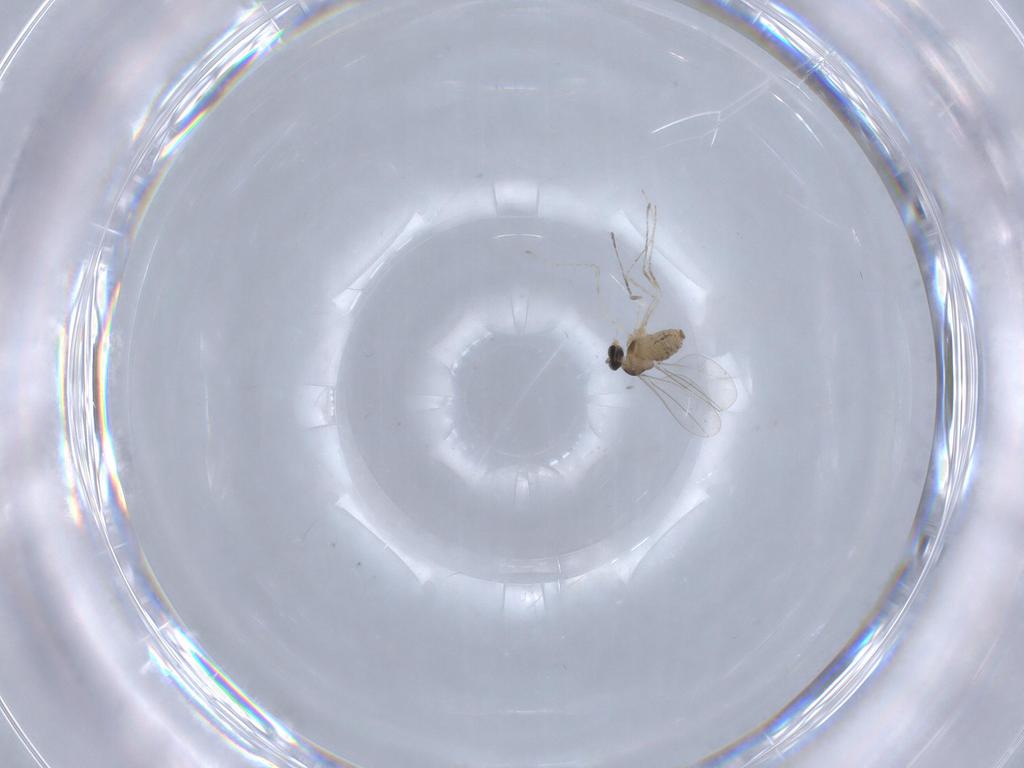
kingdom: Animalia
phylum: Arthropoda
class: Insecta
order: Diptera
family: Cecidomyiidae
